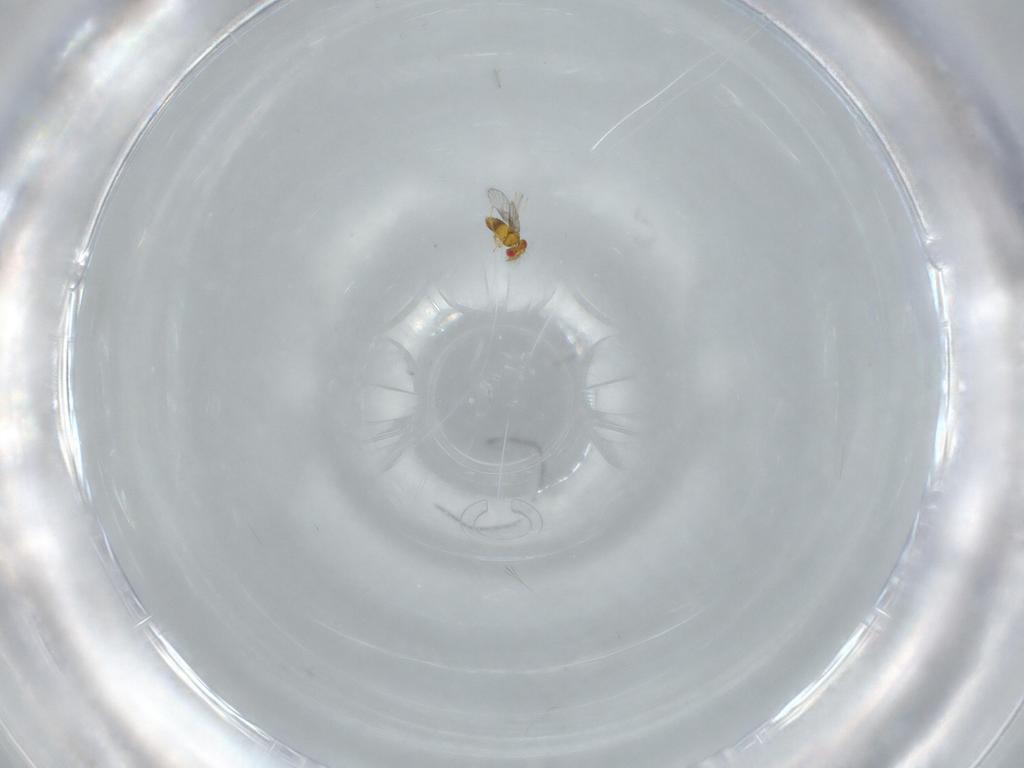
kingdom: Animalia
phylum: Arthropoda
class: Insecta
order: Hymenoptera
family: Trichogrammatidae
